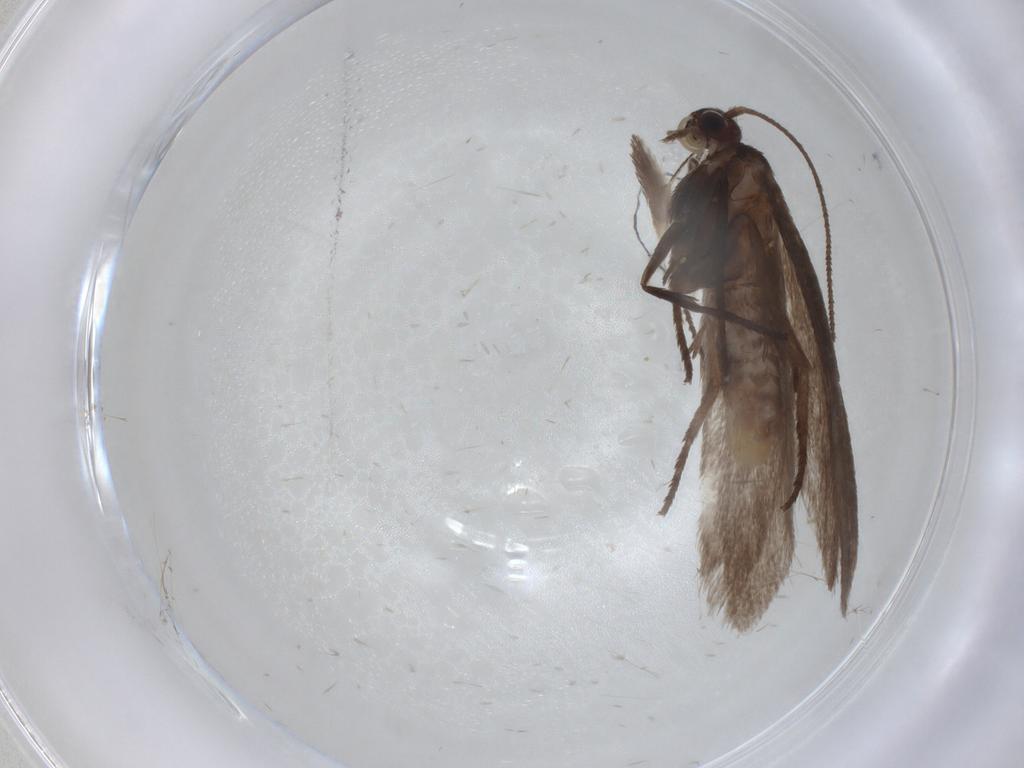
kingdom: Animalia
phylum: Arthropoda
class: Insecta
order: Lepidoptera
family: Limacodidae
